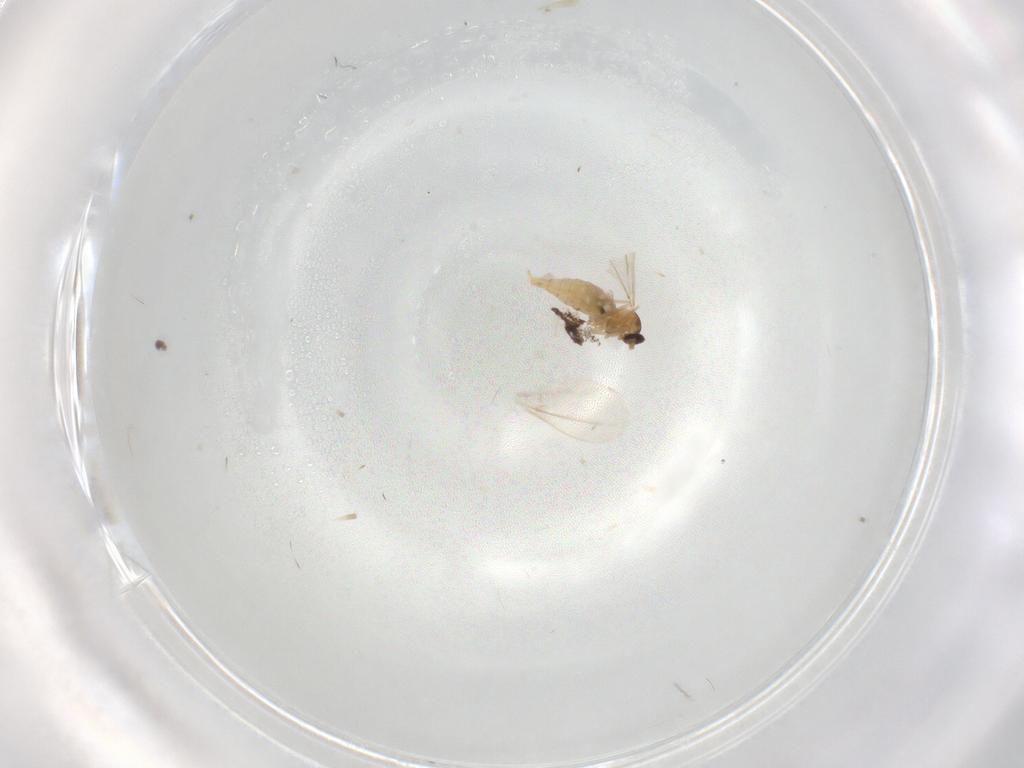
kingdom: Animalia
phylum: Arthropoda
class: Insecta
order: Diptera
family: Cecidomyiidae
